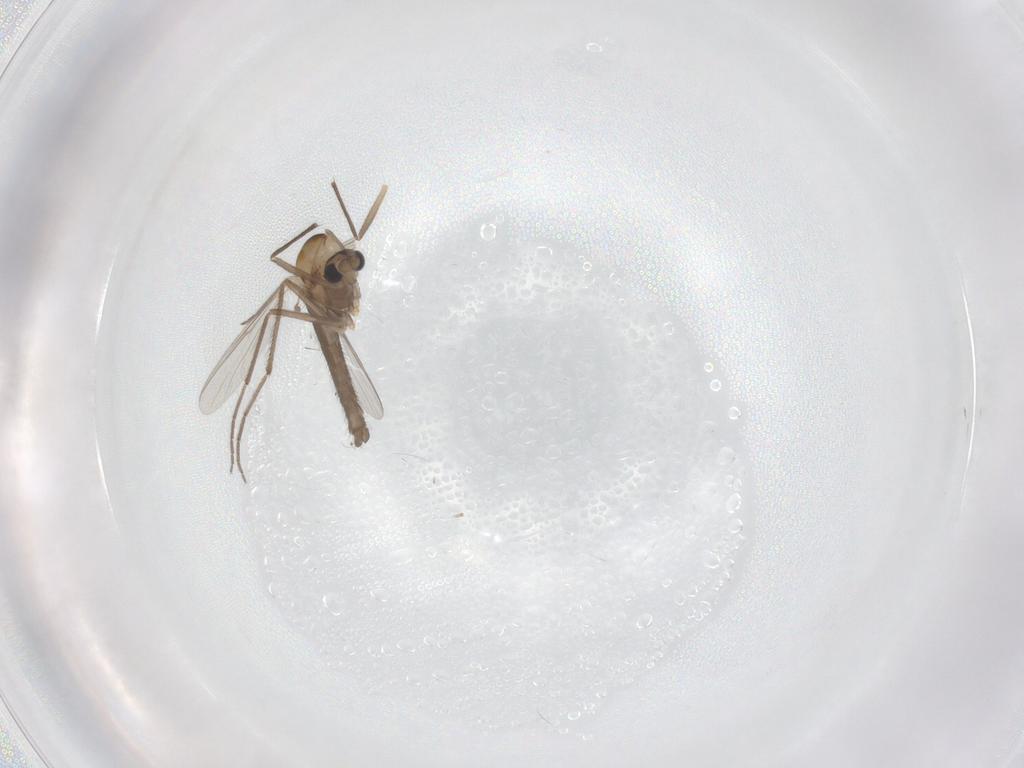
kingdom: Animalia
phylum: Arthropoda
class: Insecta
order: Diptera
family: Chironomidae
